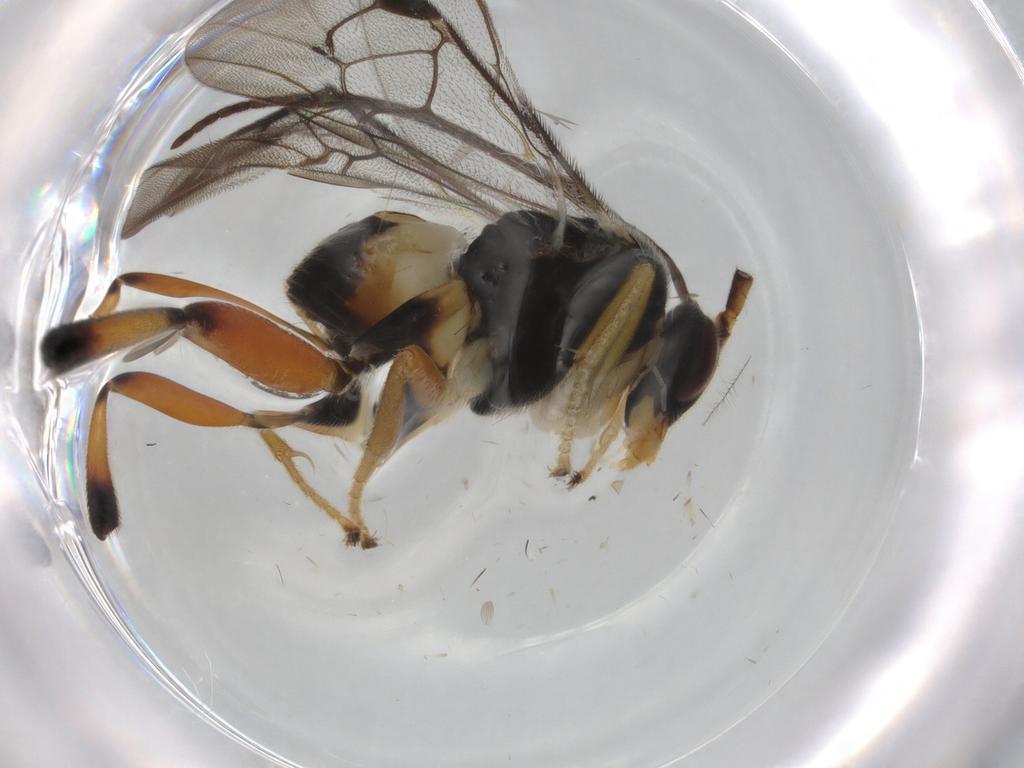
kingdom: Animalia
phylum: Arthropoda
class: Insecta
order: Hymenoptera
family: Braconidae
